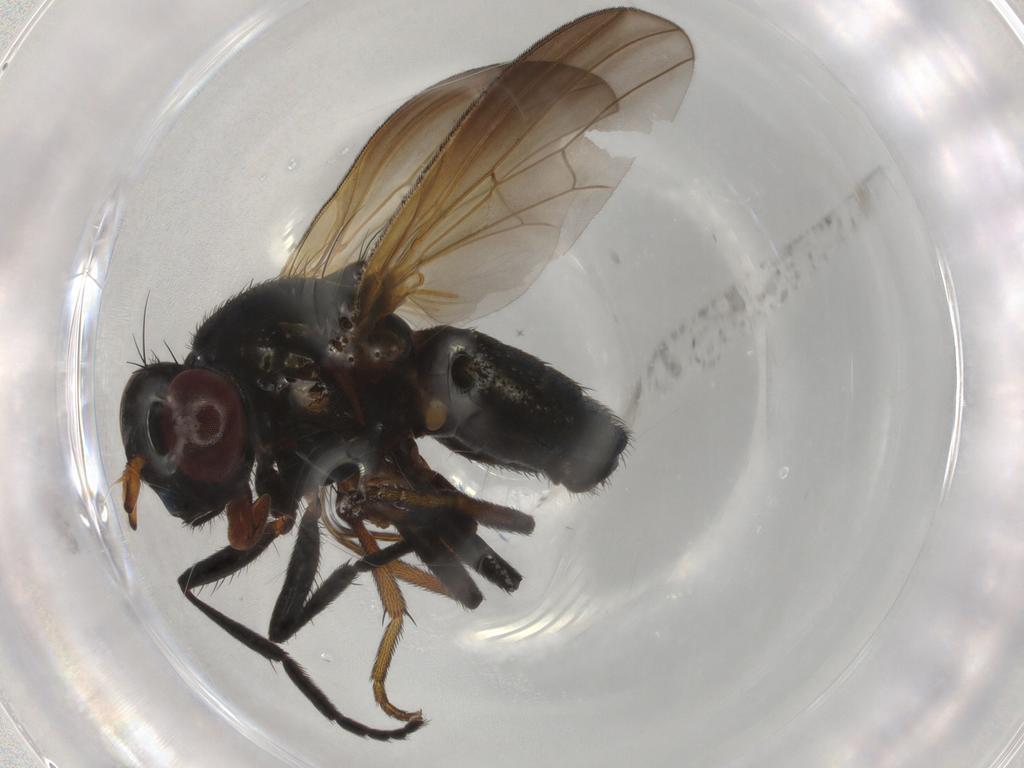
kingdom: Animalia
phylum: Arthropoda
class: Insecta
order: Diptera
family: Lauxaniidae
